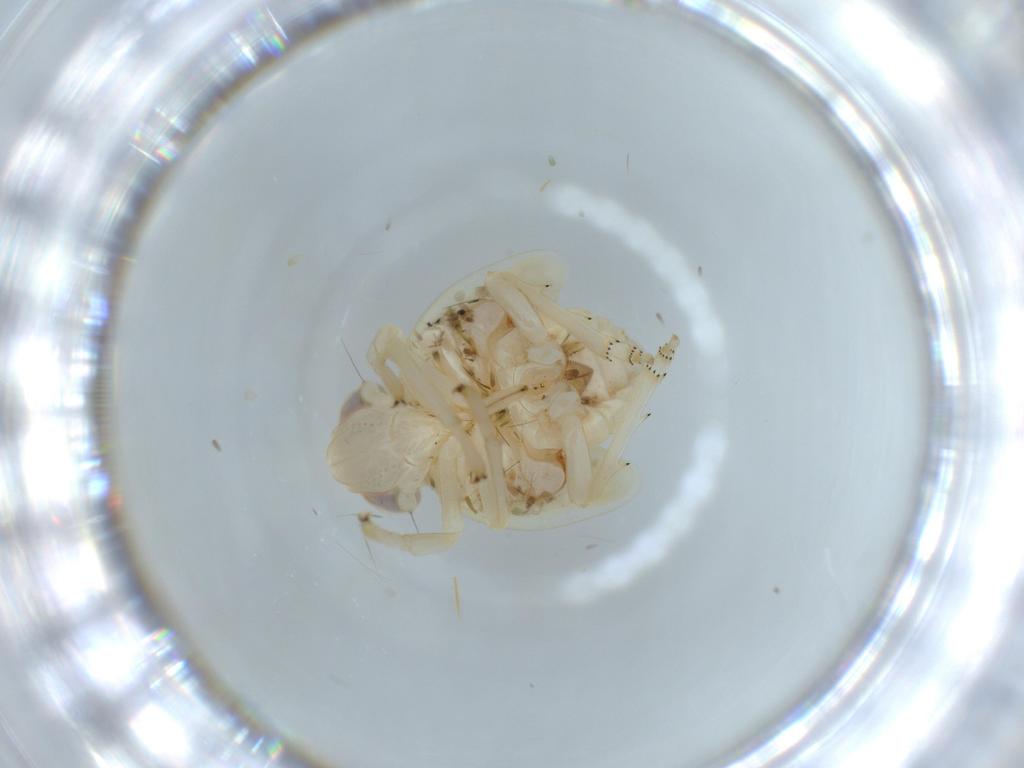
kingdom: Animalia
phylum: Arthropoda
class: Insecta
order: Hemiptera
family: Nogodinidae
